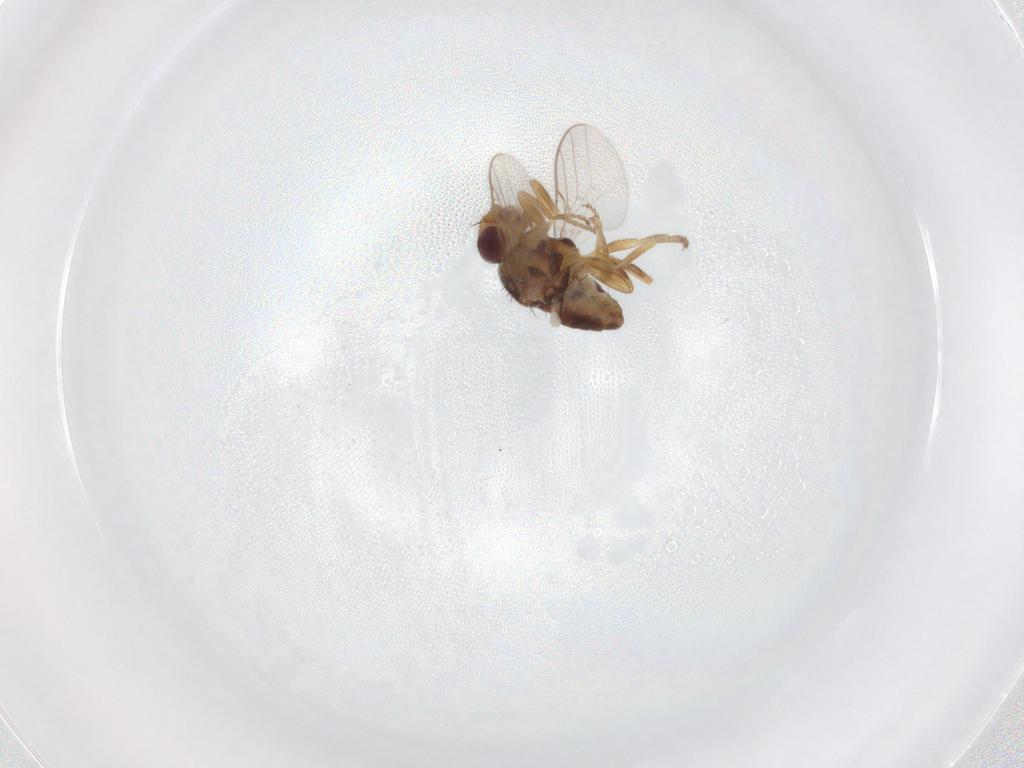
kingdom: Animalia
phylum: Arthropoda
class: Insecta
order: Diptera
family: Chloropidae
